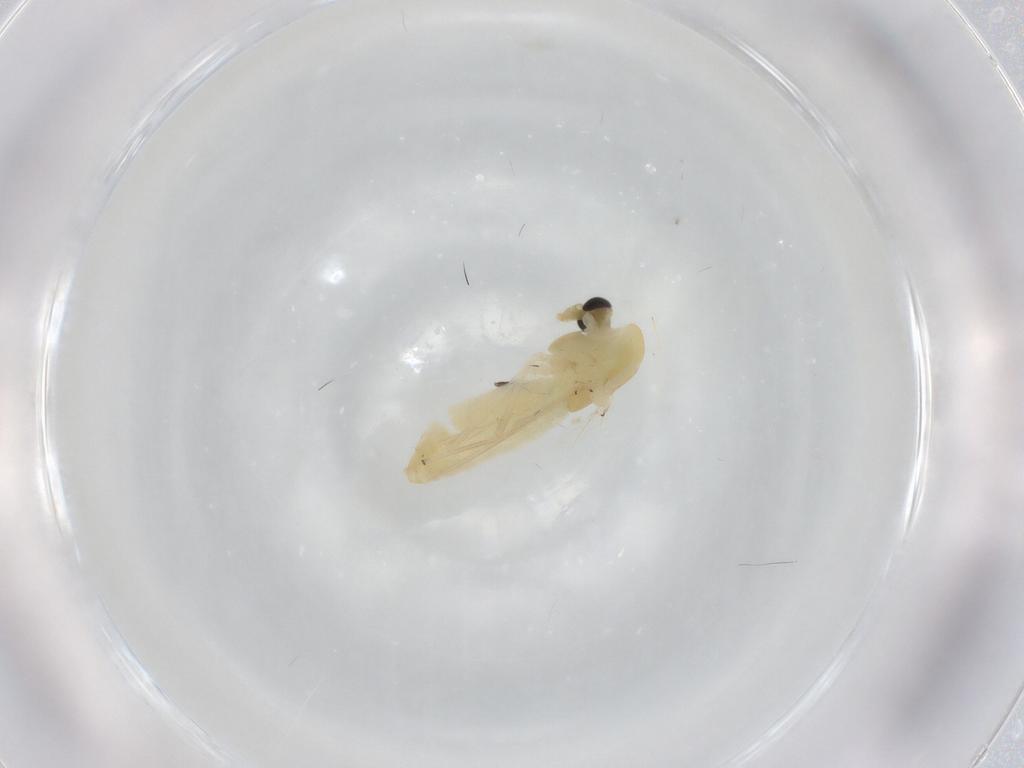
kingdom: Animalia
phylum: Arthropoda
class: Insecta
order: Diptera
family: Chironomidae
